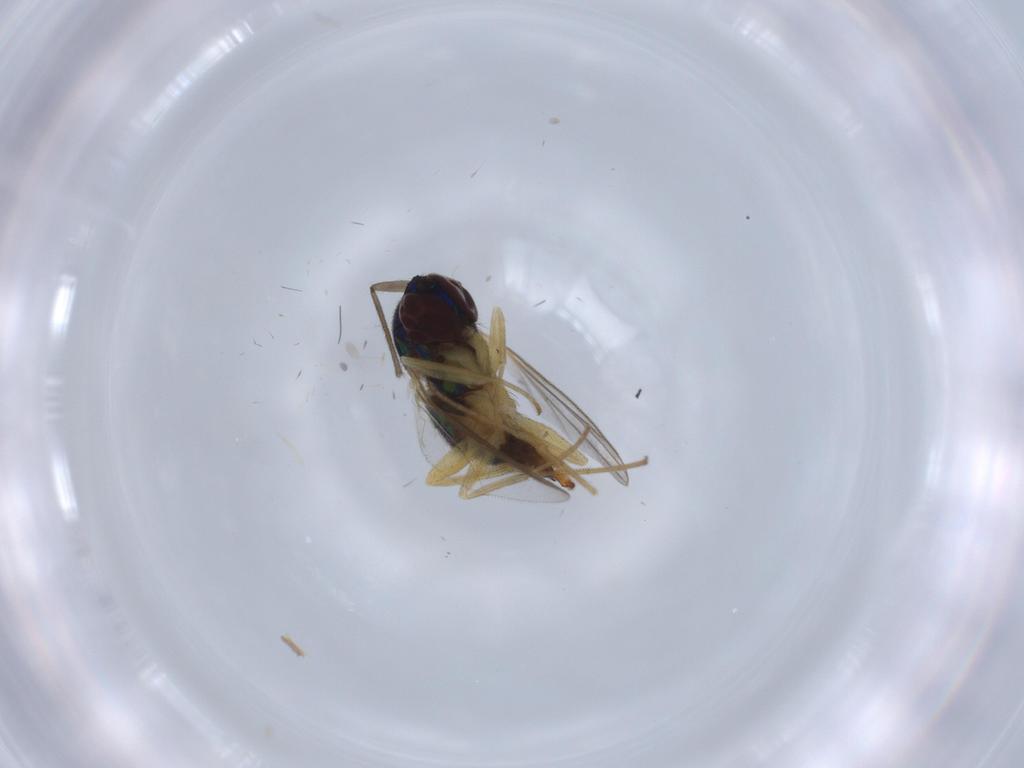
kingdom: Animalia
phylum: Arthropoda
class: Insecta
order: Diptera
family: Dolichopodidae
